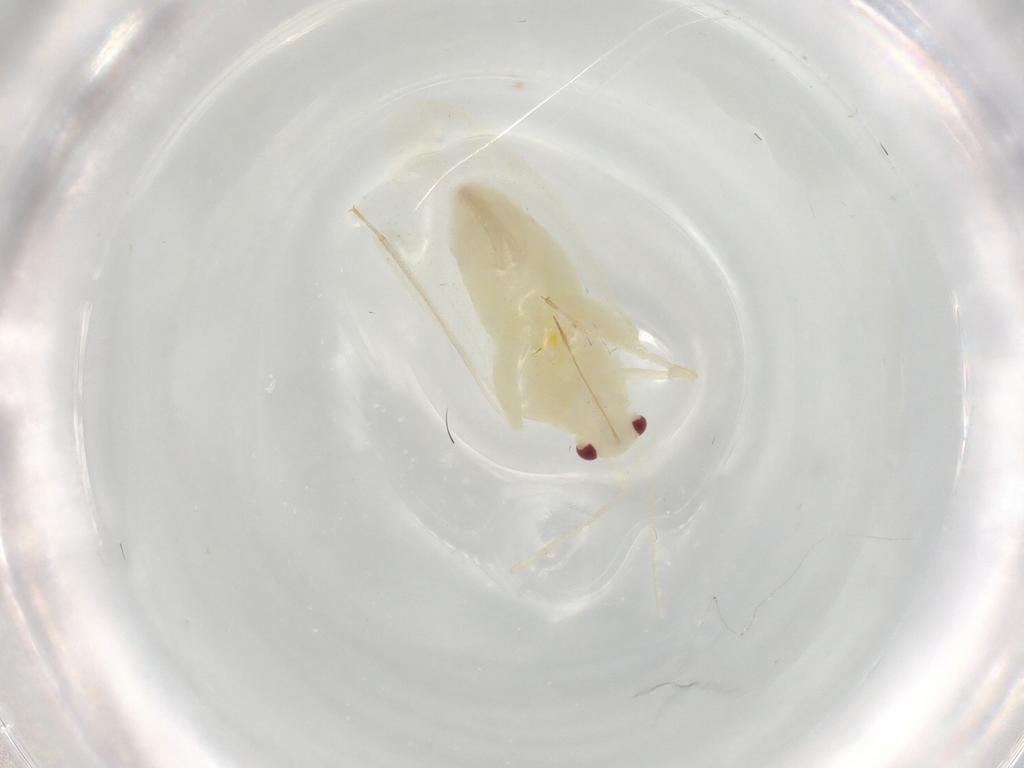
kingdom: Animalia
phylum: Arthropoda
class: Insecta
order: Hemiptera
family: Miridae
